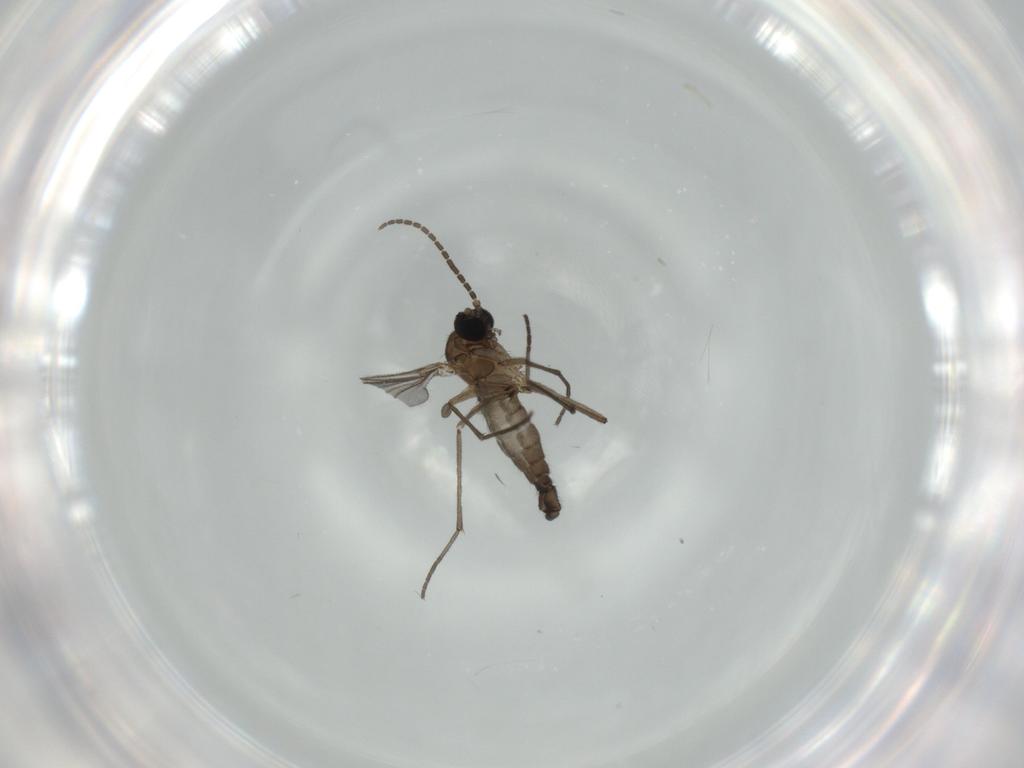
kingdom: Animalia
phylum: Arthropoda
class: Insecta
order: Diptera
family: Sciaridae
